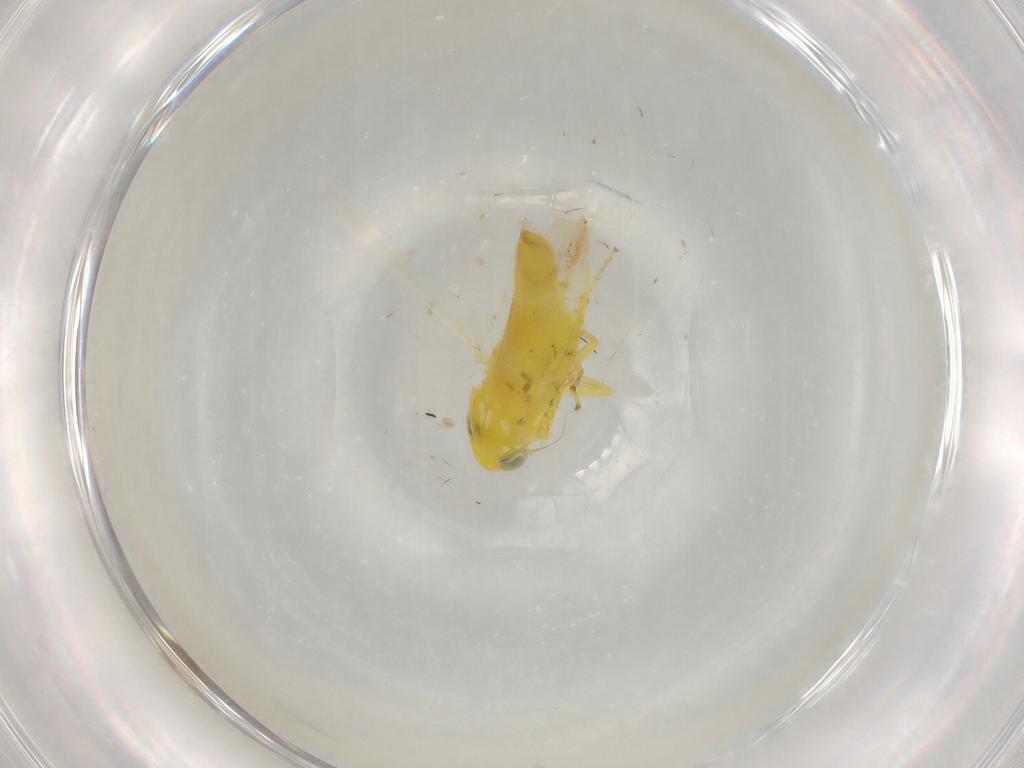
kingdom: Animalia
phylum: Arthropoda
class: Insecta
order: Hemiptera
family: Cicadellidae
